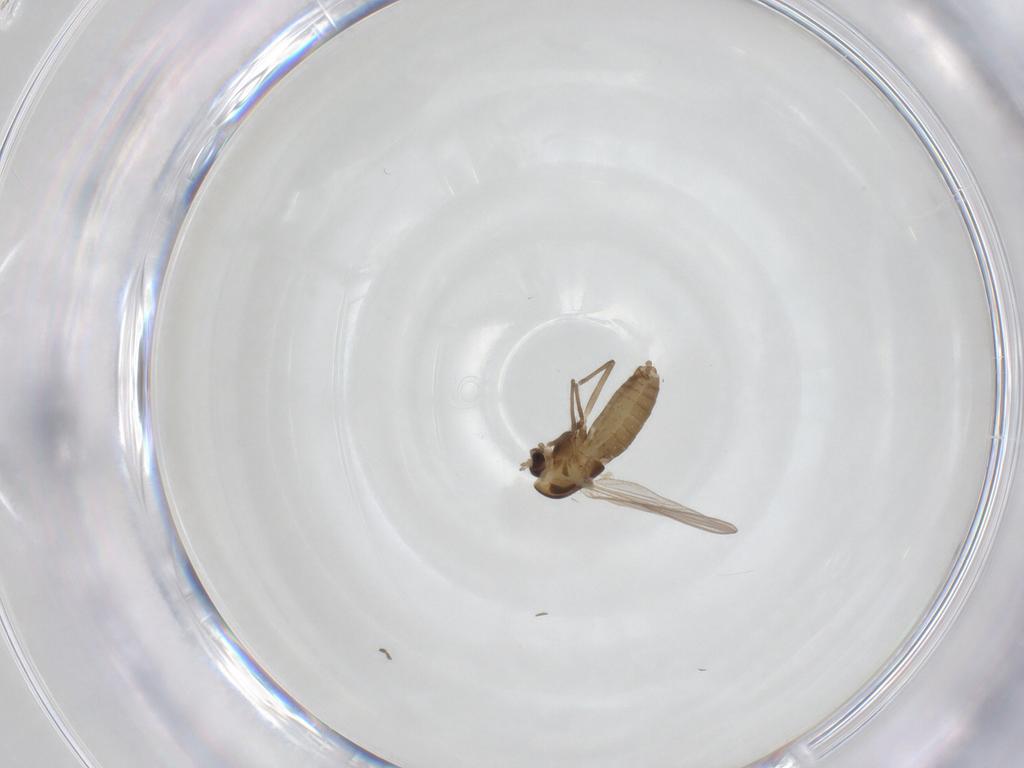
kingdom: Animalia
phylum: Arthropoda
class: Insecta
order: Diptera
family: Chironomidae
